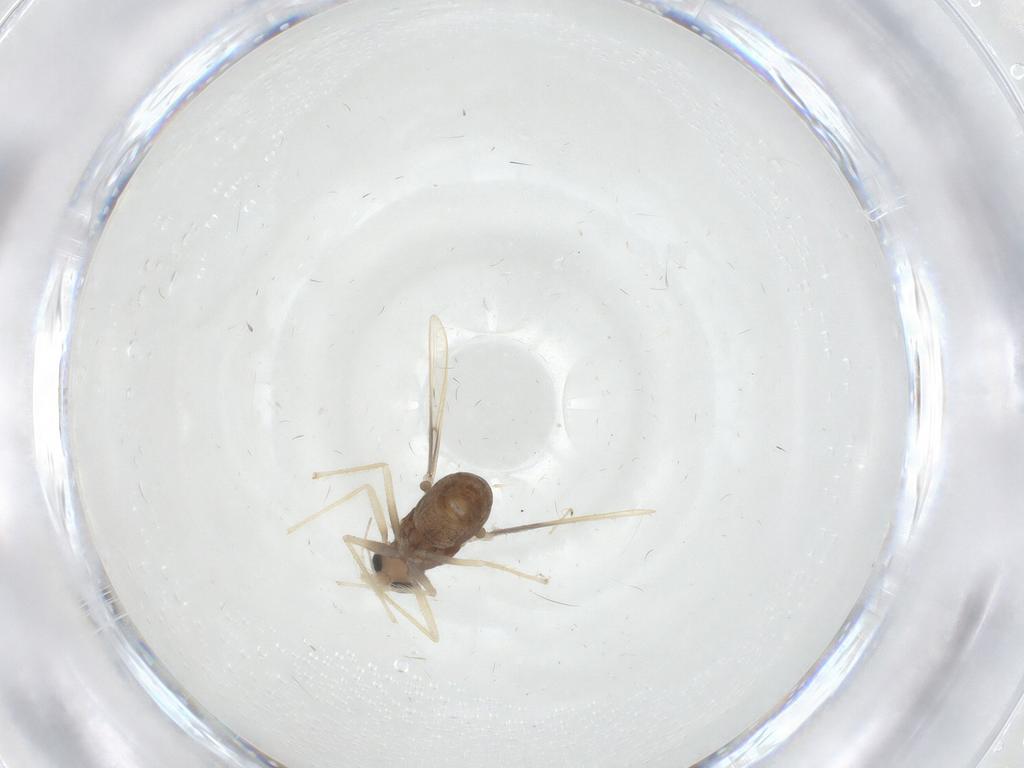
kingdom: Animalia
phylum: Arthropoda
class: Insecta
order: Diptera
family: Chironomidae
